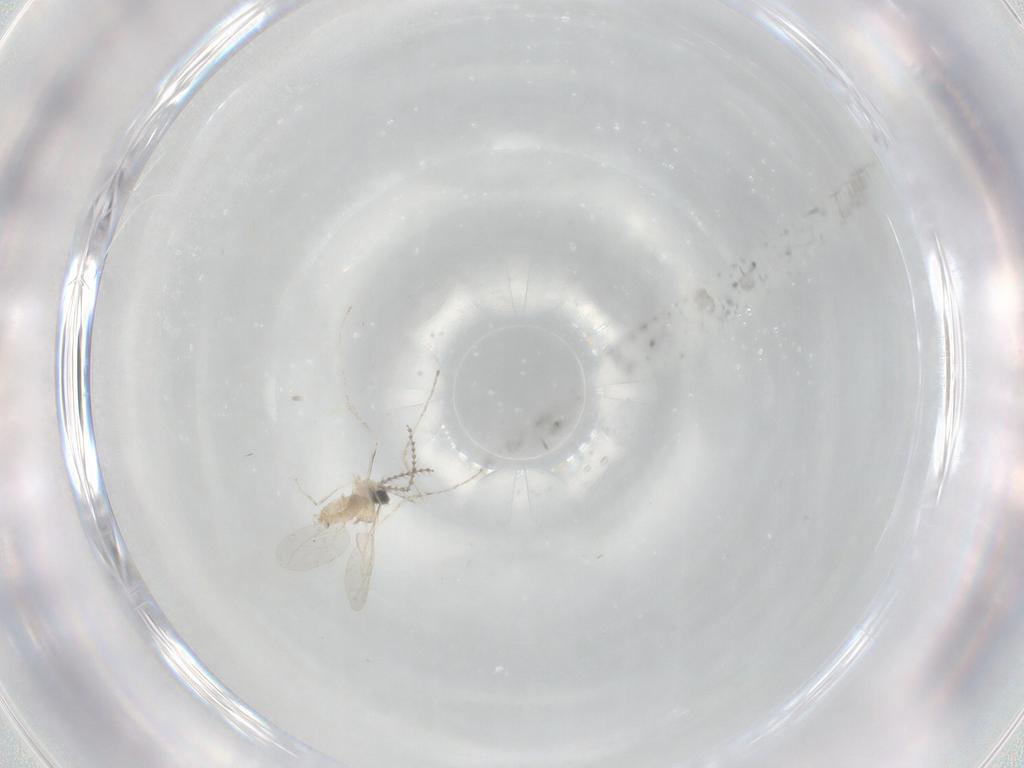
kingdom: Animalia
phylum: Arthropoda
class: Insecta
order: Diptera
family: Cecidomyiidae
